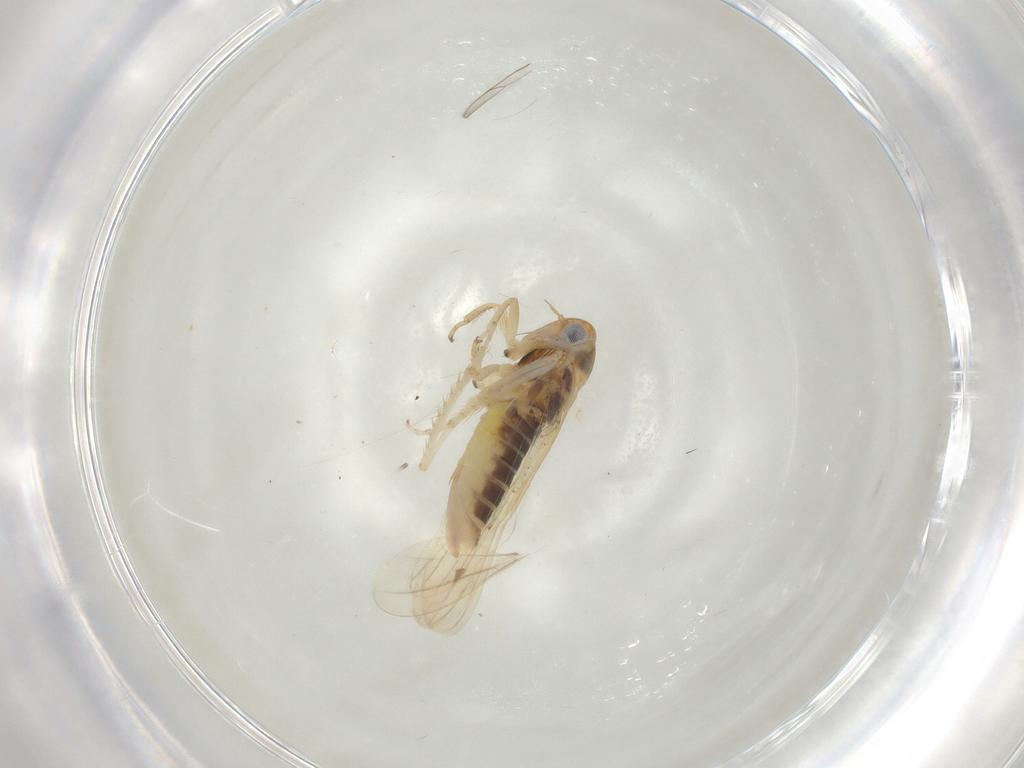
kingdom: Animalia
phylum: Arthropoda
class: Insecta
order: Hemiptera
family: Cicadellidae
